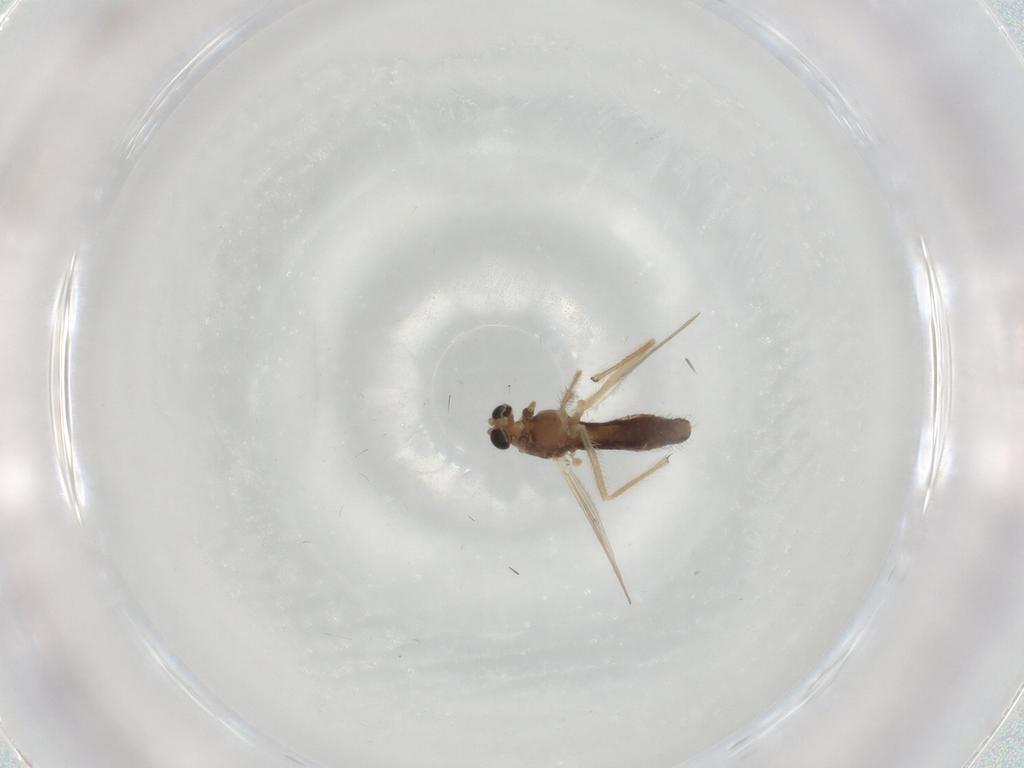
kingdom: Animalia
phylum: Arthropoda
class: Insecta
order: Diptera
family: Chironomidae
